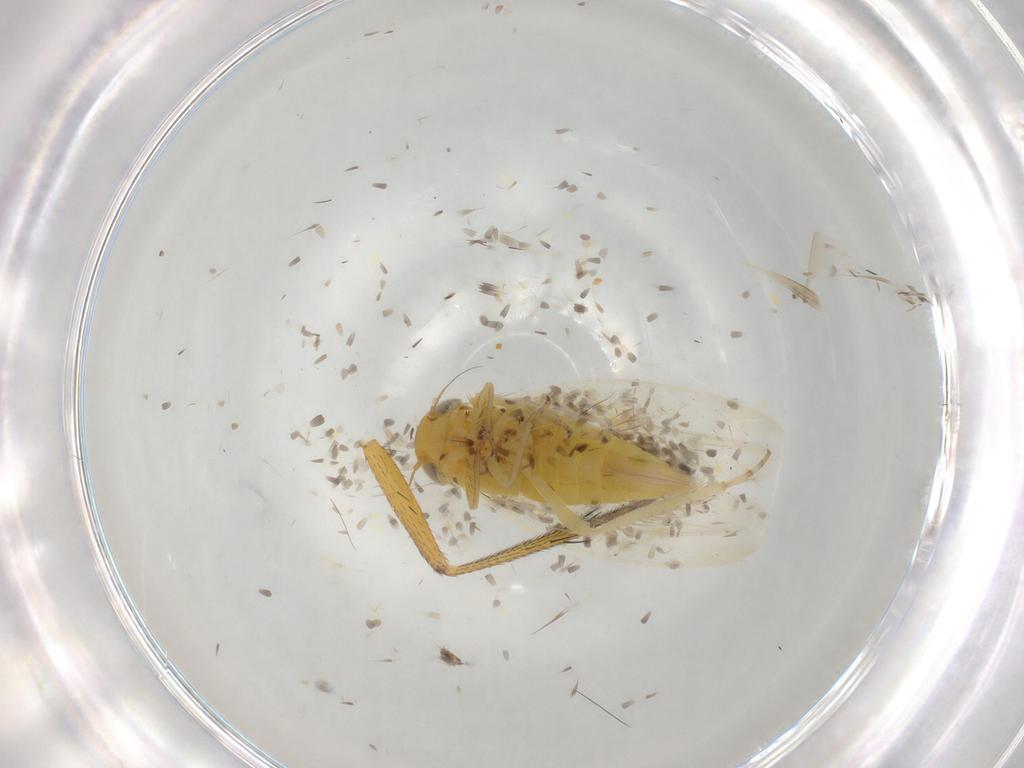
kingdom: Animalia
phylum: Arthropoda
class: Insecta
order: Hemiptera
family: Cicadellidae
